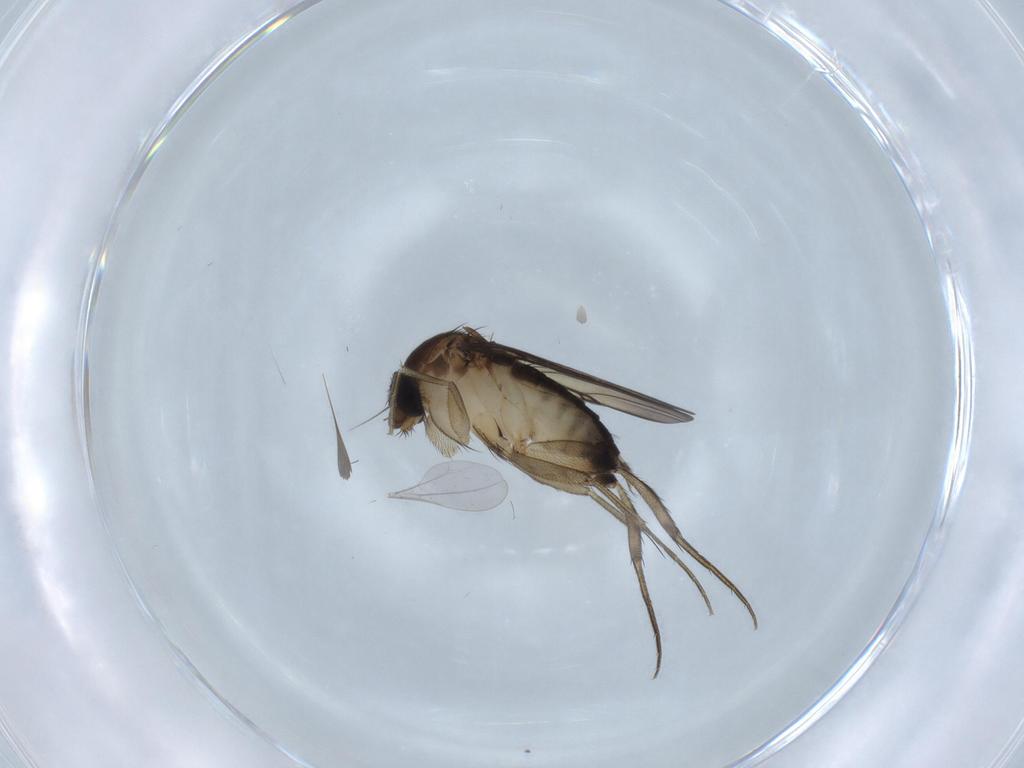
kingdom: Animalia
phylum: Arthropoda
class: Insecta
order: Diptera
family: Phoridae
